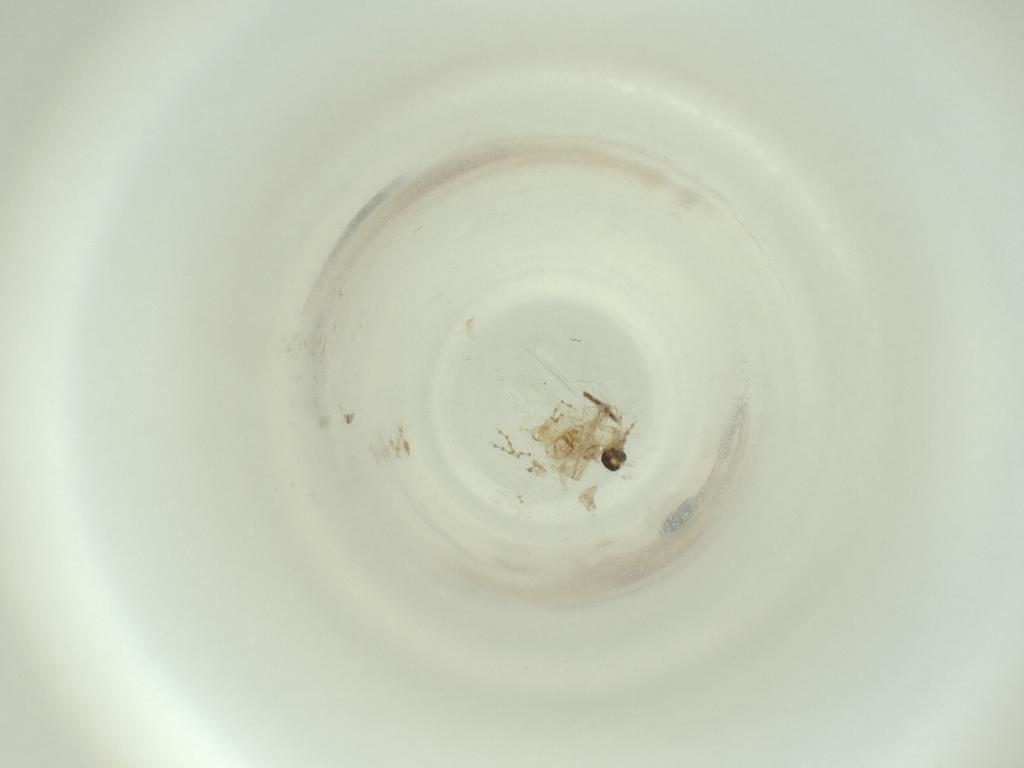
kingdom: Animalia
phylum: Arthropoda
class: Insecta
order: Diptera
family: Cecidomyiidae
